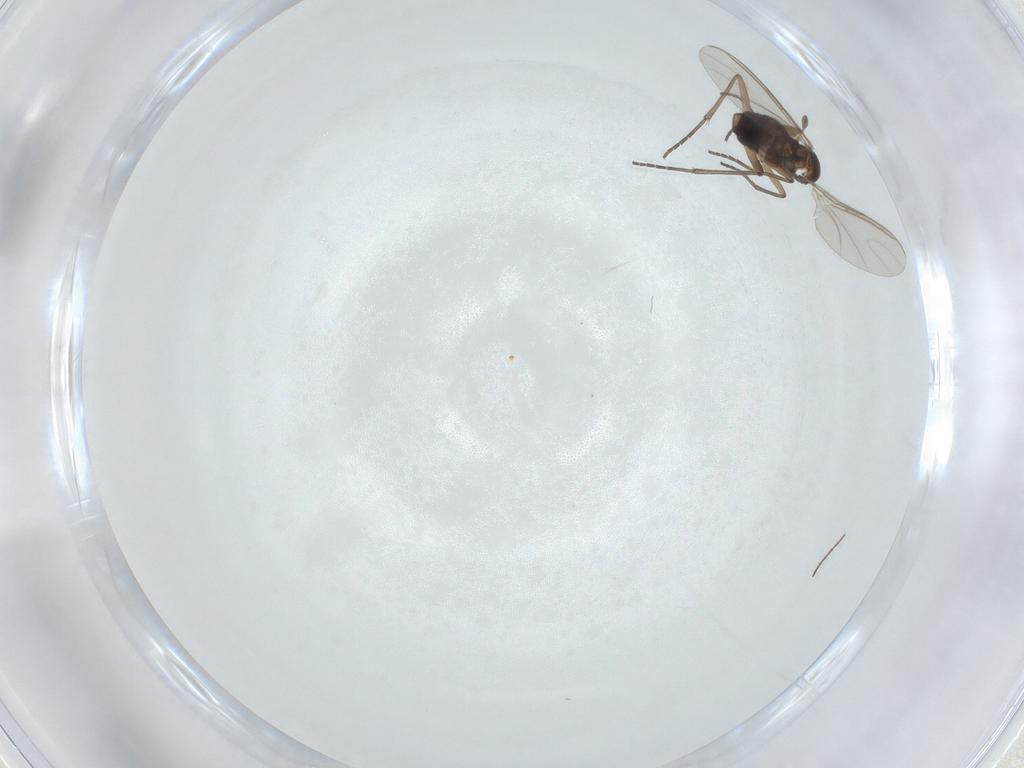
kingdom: Animalia
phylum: Arthropoda
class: Insecta
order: Diptera
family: Sciaridae
